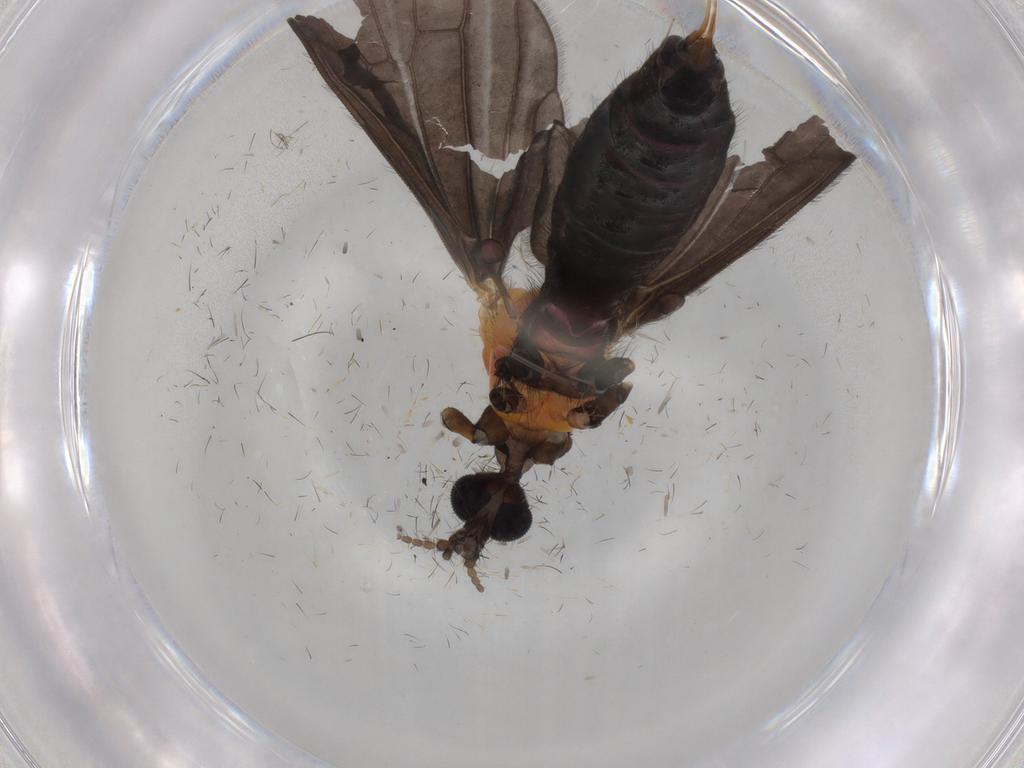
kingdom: Animalia
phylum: Arthropoda
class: Insecta
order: Diptera
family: Limoniidae
